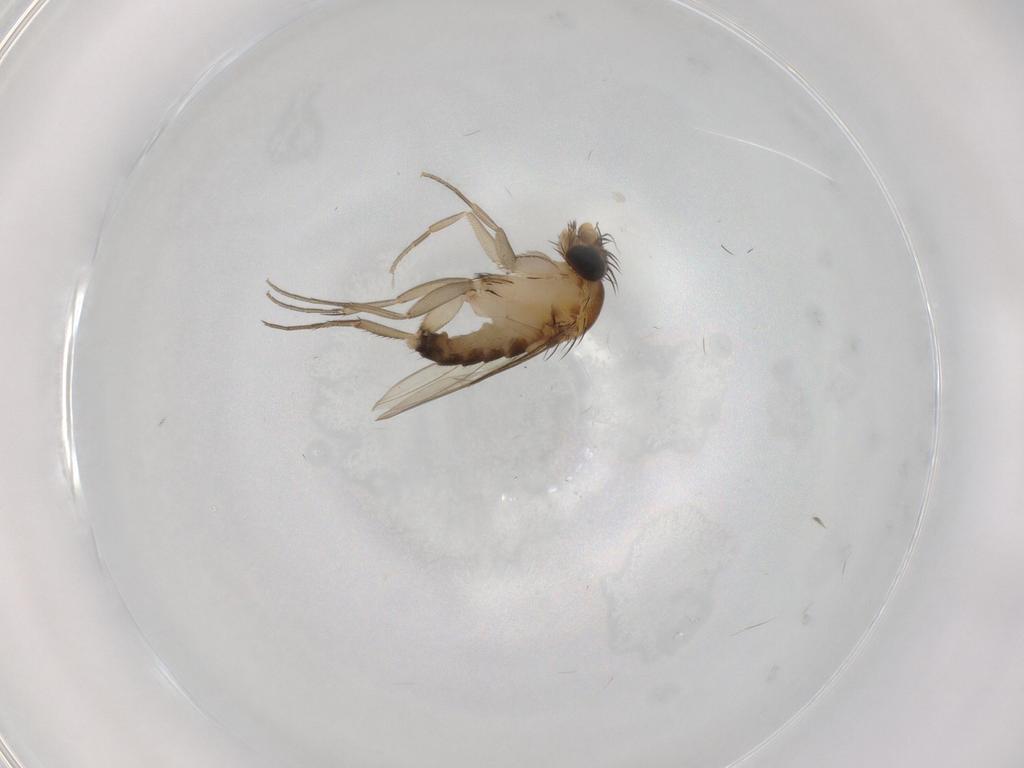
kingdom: Animalia
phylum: Arthropoda
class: Insecta
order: Diptera
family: Phoridae
